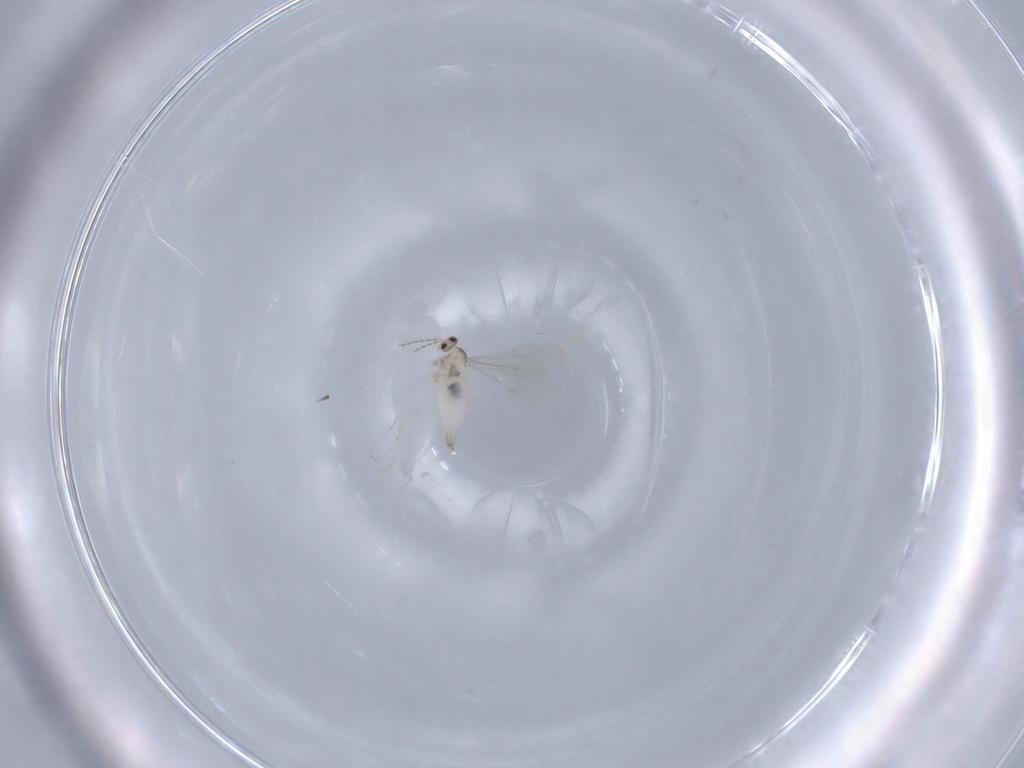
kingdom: Animalia
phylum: Arthropoda
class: Insecta
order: Diptera
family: Cecidomyiidae
